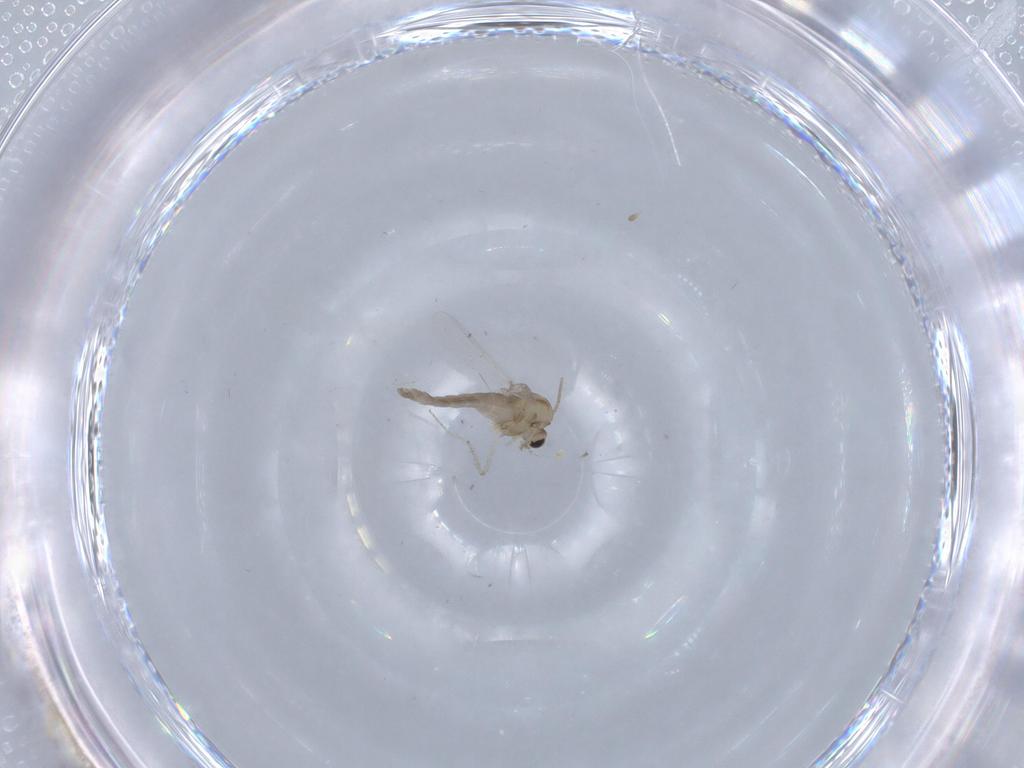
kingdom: Animalia
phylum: Arthropoda
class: Insecta
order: Diptera
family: Chironomidae
